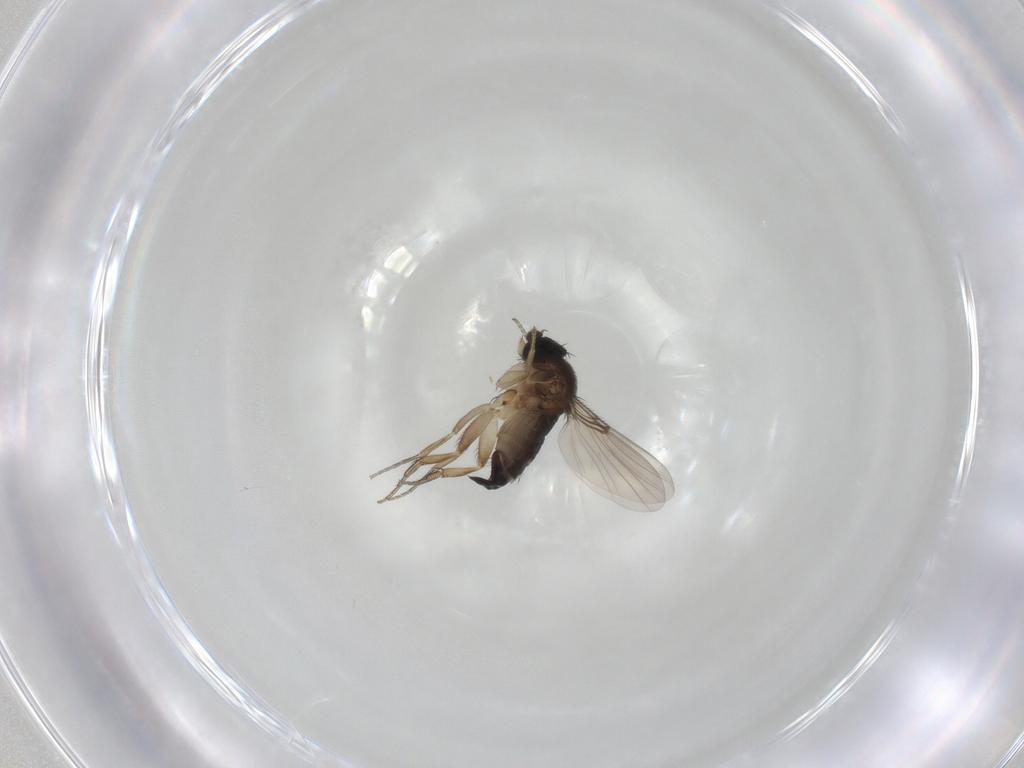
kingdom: Animalia
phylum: Arthropoda
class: Insecta
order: Diptera
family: Phoridae
